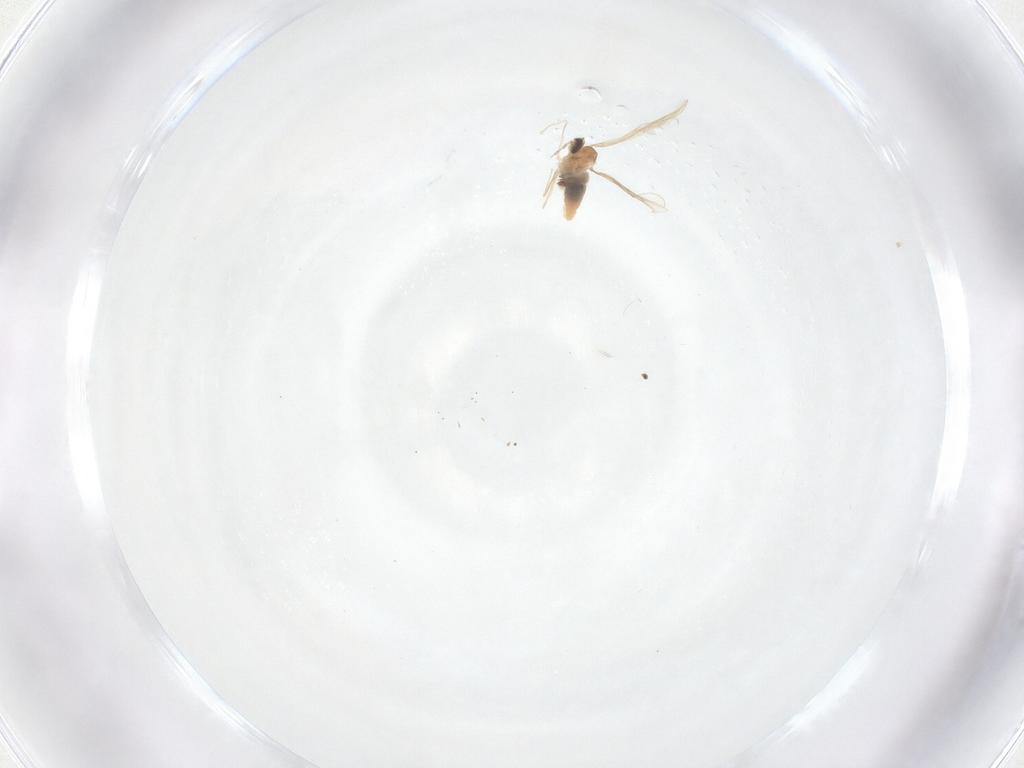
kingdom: Animalia
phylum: Arthropoda
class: Insecta
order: Diptera
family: Cecidomyiidae
